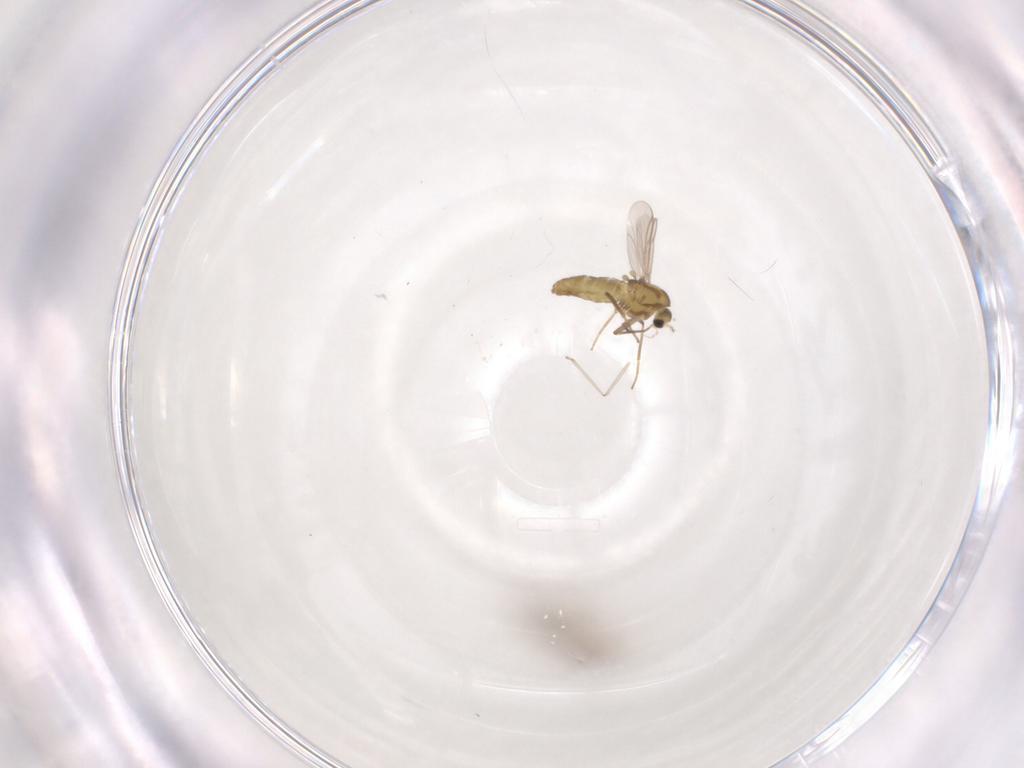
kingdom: Animalia
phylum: Arthropoda
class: Insecta
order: Diptera
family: Chironomidae
